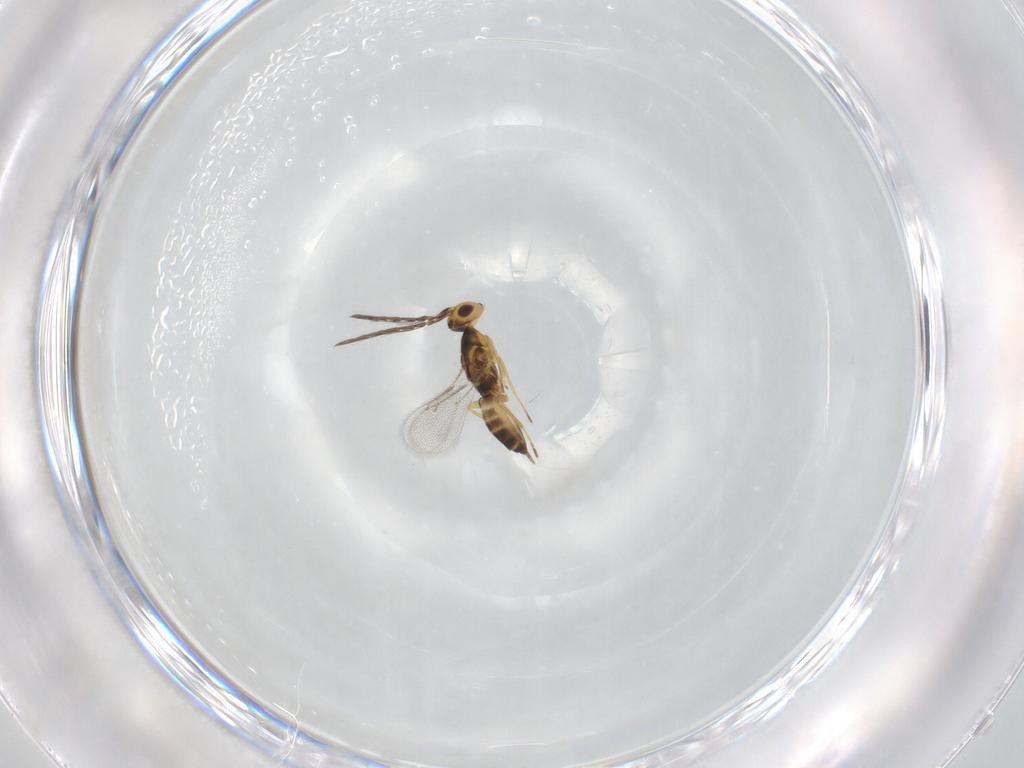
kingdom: Animalia
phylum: Arthropoda
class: Insecta
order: Hymenoptera
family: Eulophidae
